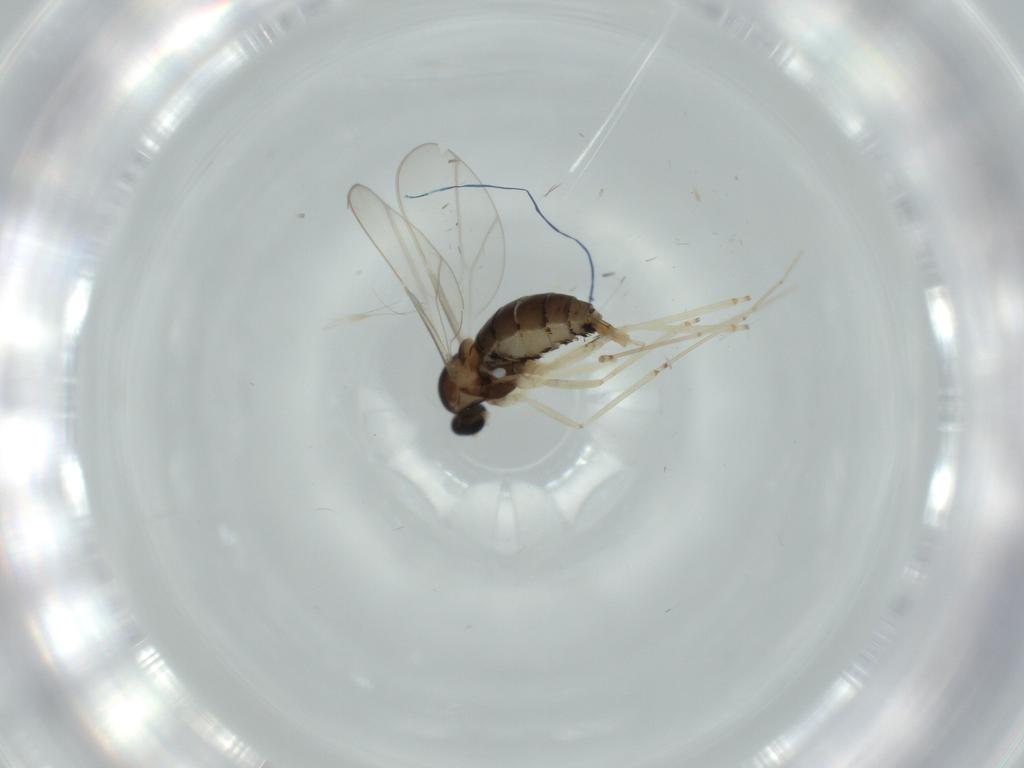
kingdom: Animalia
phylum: Arthropoda
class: Insecta
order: Diptera
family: Cecidomyiidae
